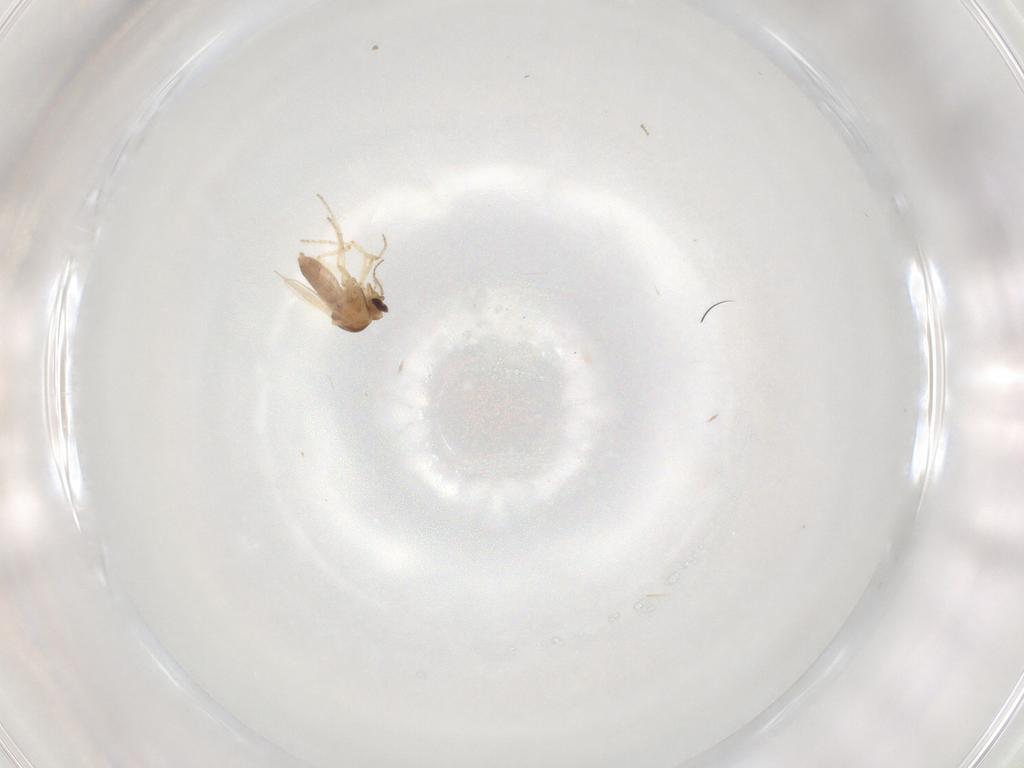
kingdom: Animalia
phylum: Arthropoda
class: Insecta
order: Diptera
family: Ceratopogonidae
